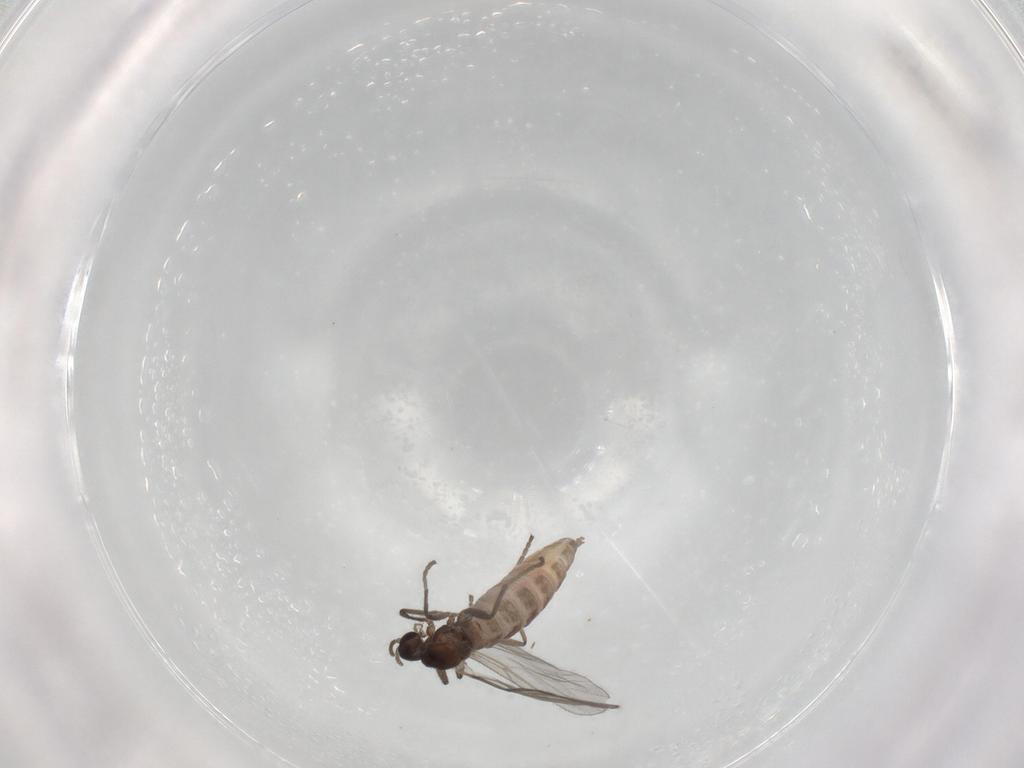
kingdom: Animalia
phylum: Arthropoda
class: Insecta
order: Diptera
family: Cecidomyiidae
